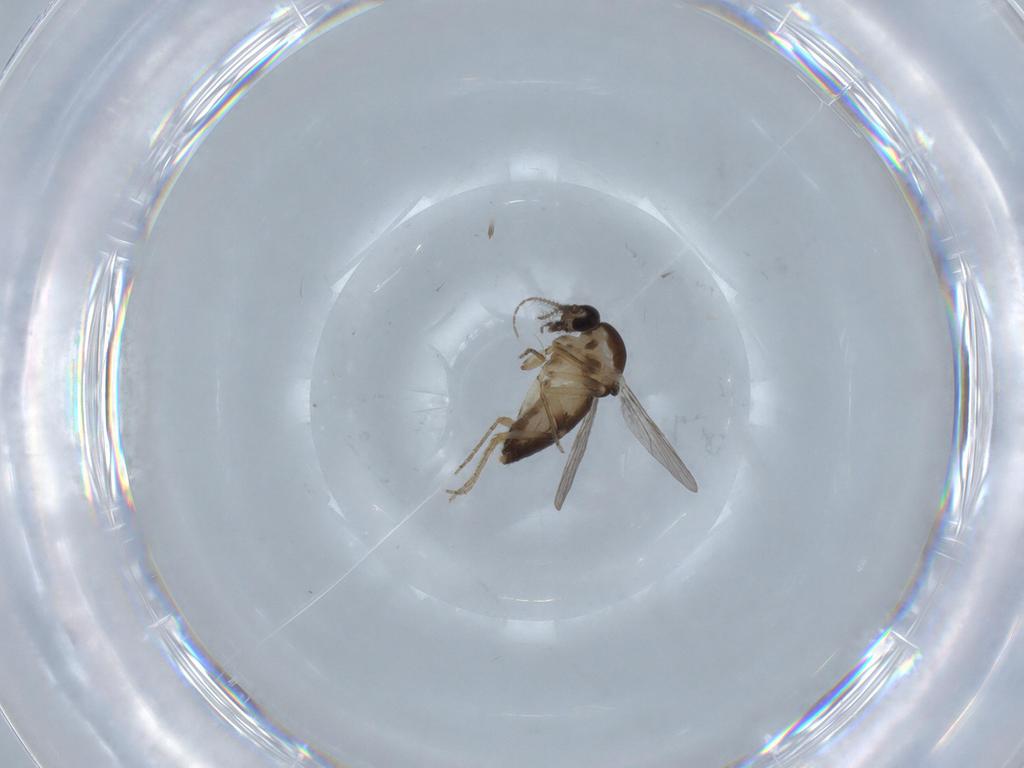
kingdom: Animalia
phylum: Arthropoda
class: Insecta
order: Diptera
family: Ceratopogonidae
